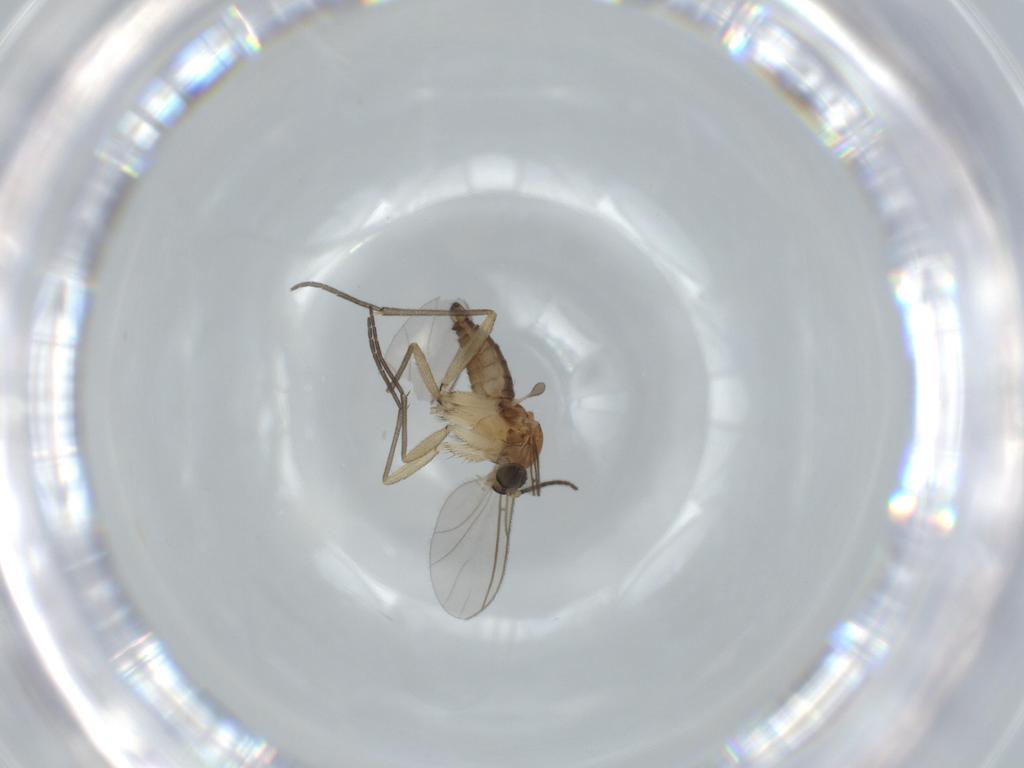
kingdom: Animalia
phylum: Arthropoda
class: Insecta
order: Diptera
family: Sciaridae
